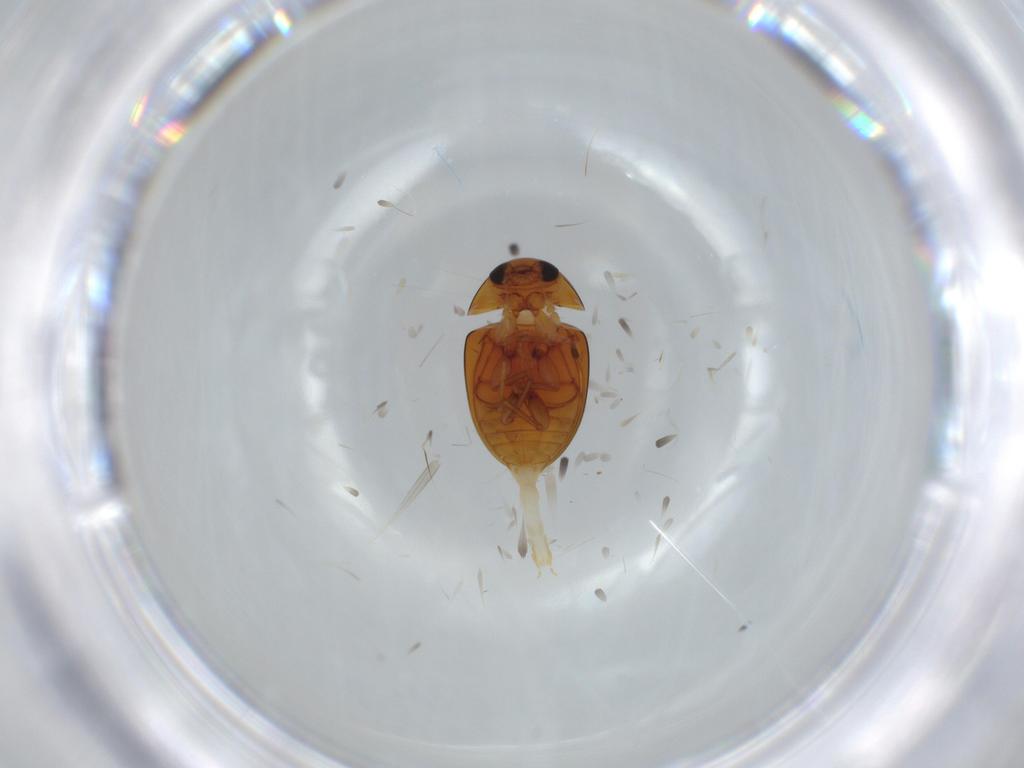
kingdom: Animalia
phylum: Arthropoda
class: Insecta
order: Coleoptera
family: Phalacridae
